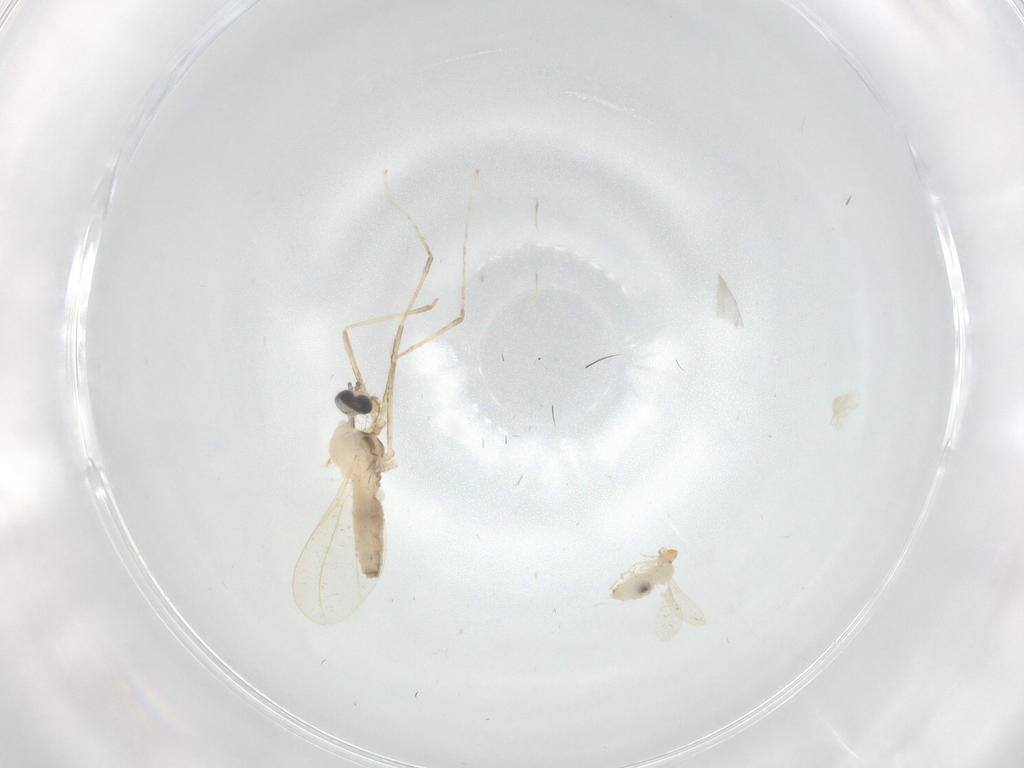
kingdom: Animalia
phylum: Arthropoda
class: Insecta
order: Diptera
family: Cecidomyiidae
